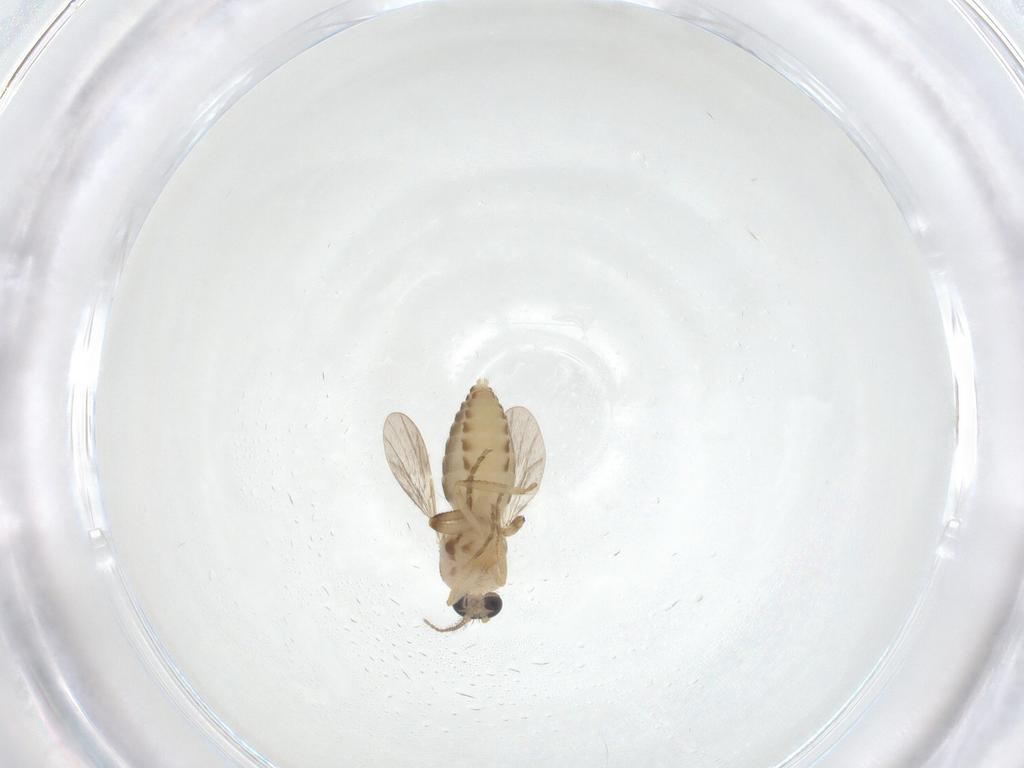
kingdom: Animalia
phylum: Arthropoda
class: Insecta
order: Diptera
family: Ceratopogonidae
